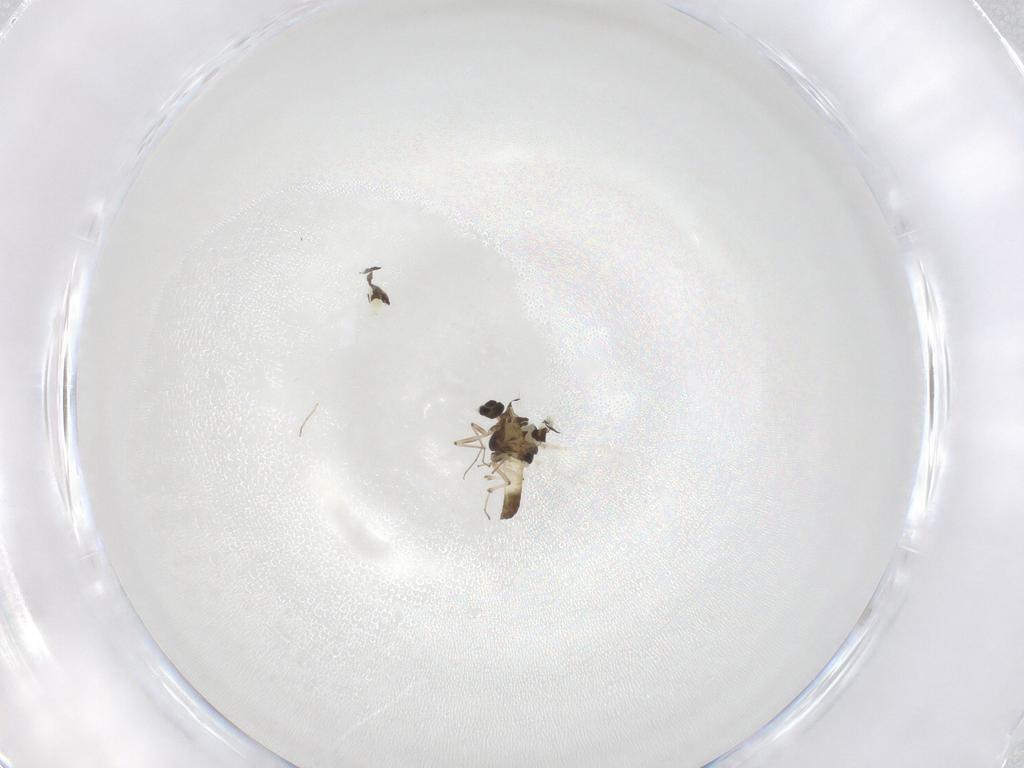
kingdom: Animalia
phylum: Arthropoda
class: Insecta
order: Diptera
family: Chironomidae
